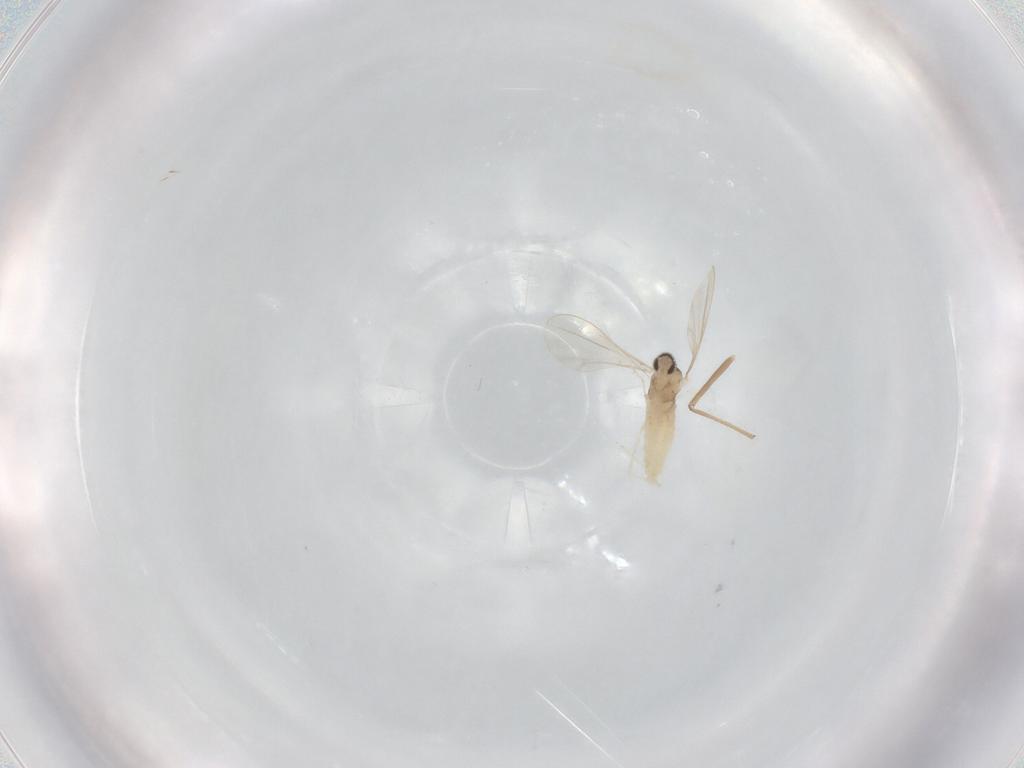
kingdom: Animalia
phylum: Arthropoda
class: Insecta
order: Diptera
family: Cecidomyiidae
